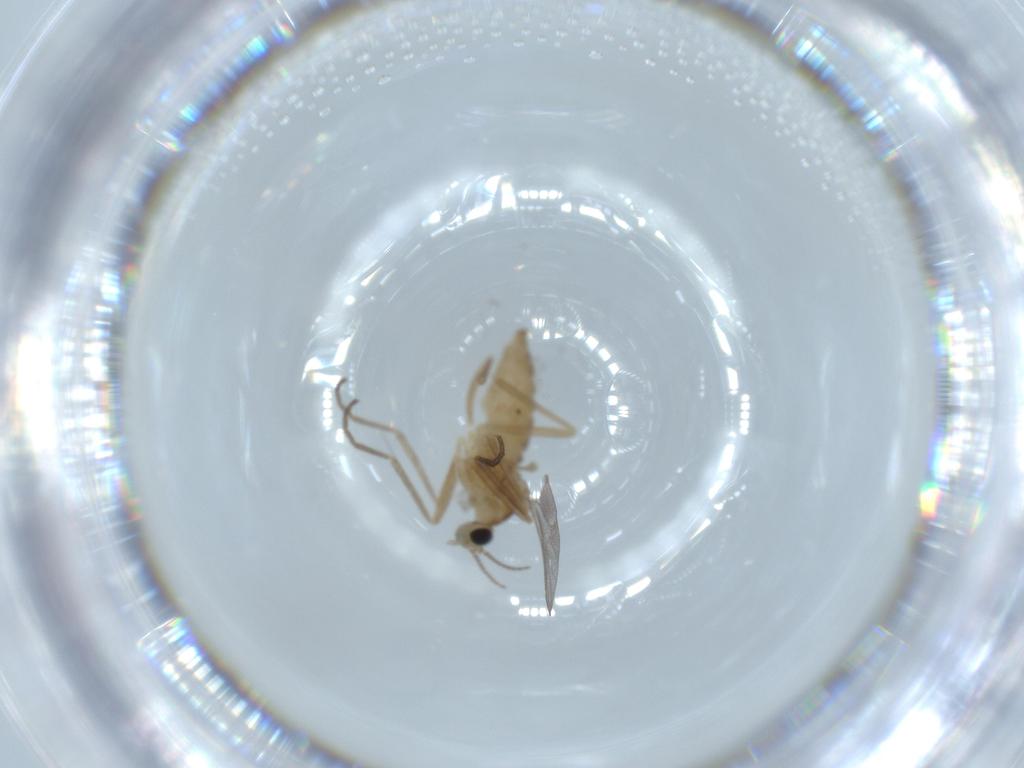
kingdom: Animalia
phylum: Arthropoda
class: Insecta
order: Diptera
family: Cecidomyiidae
